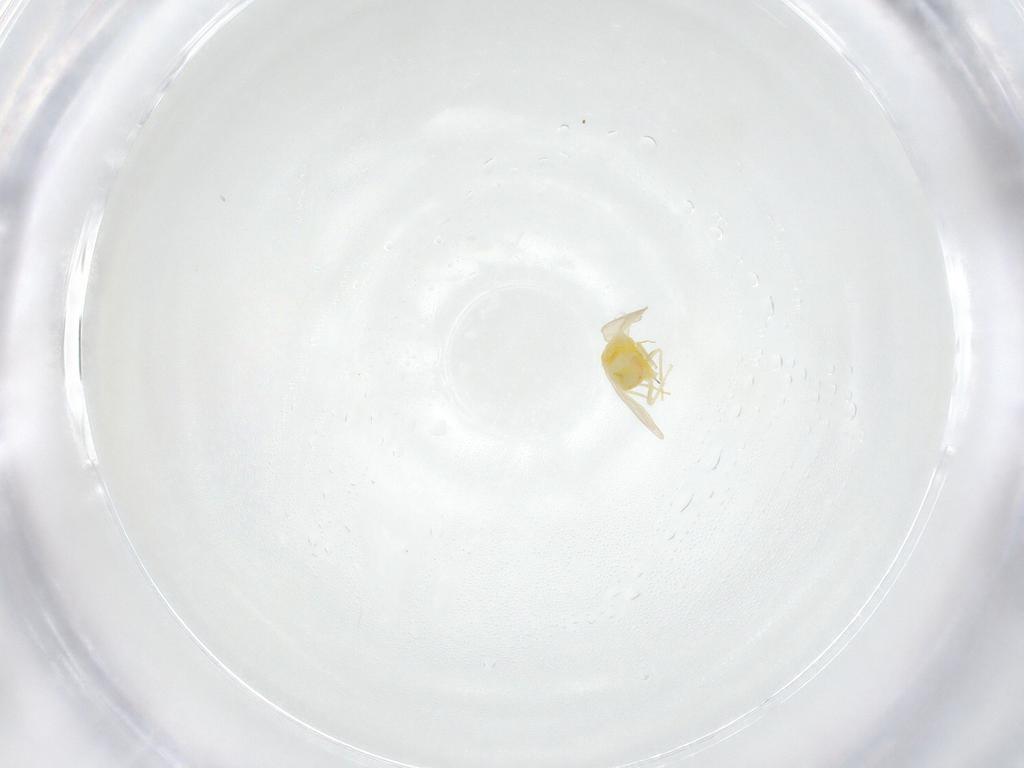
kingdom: Animalia
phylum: Arthropoda
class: Insecta
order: Hemiptera
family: Aleyrodidae
